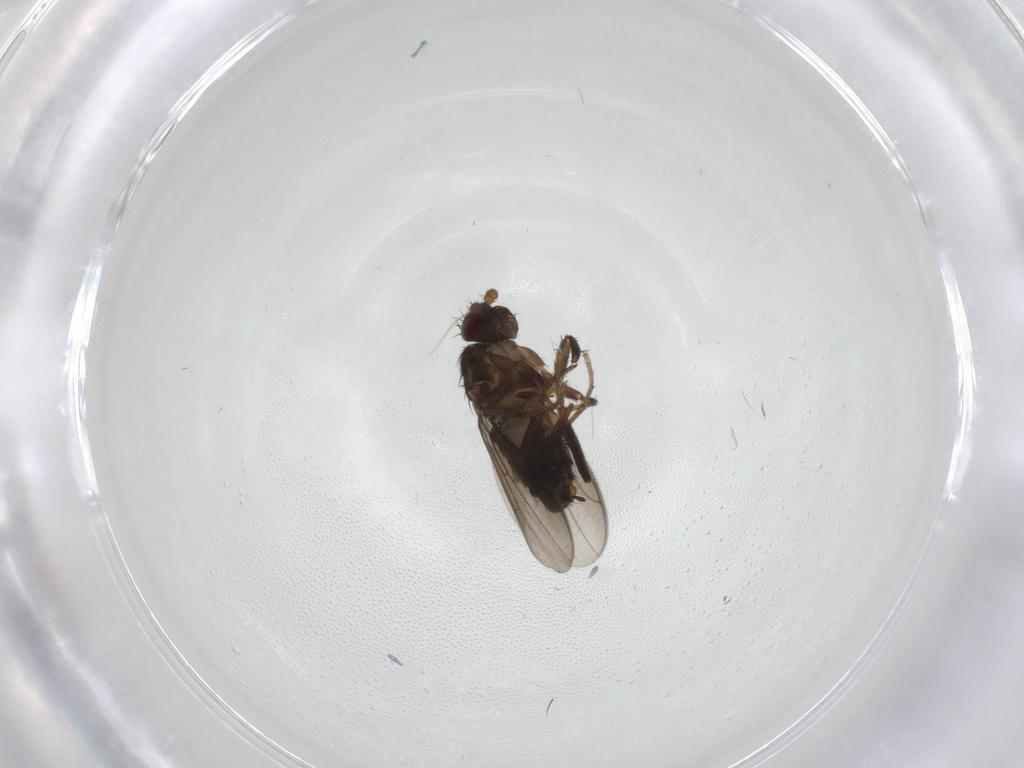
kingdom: Animalia
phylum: Arthropoda
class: Insecta
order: Diptera
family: Sphaeroceridae
